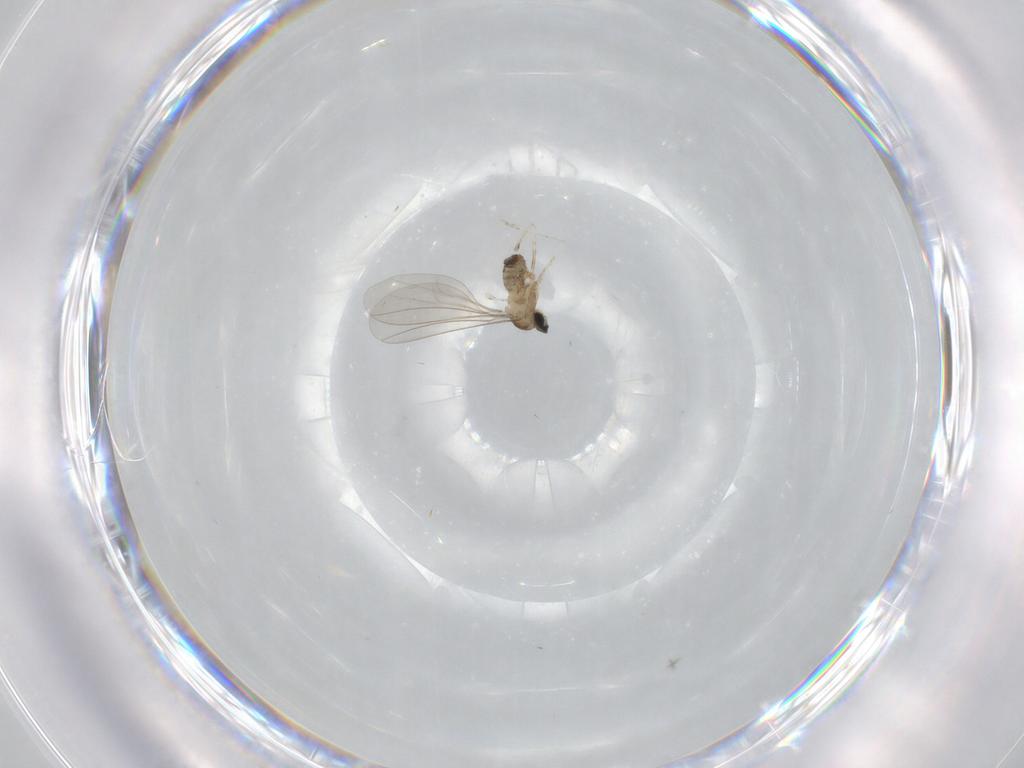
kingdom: Animalia
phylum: Arthropoda
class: Insecta
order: Diptera
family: Cecidomyiidae
